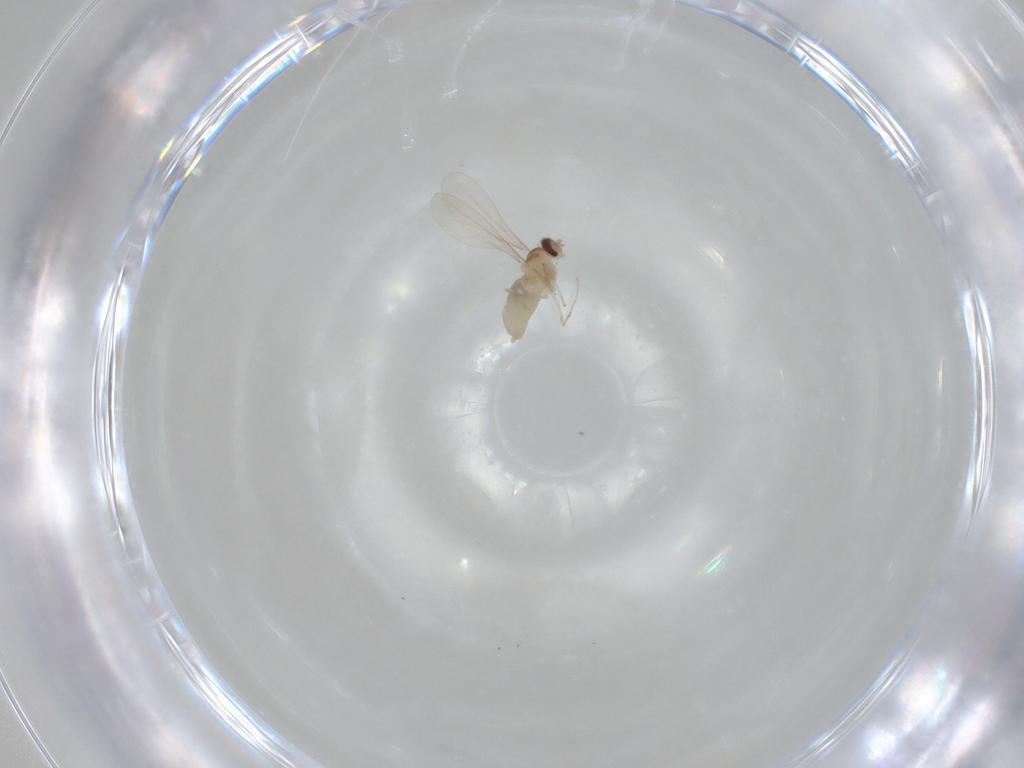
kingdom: Animalia
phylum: Arthropoda
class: Insecta
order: Diptera
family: Cecidomyiidae
